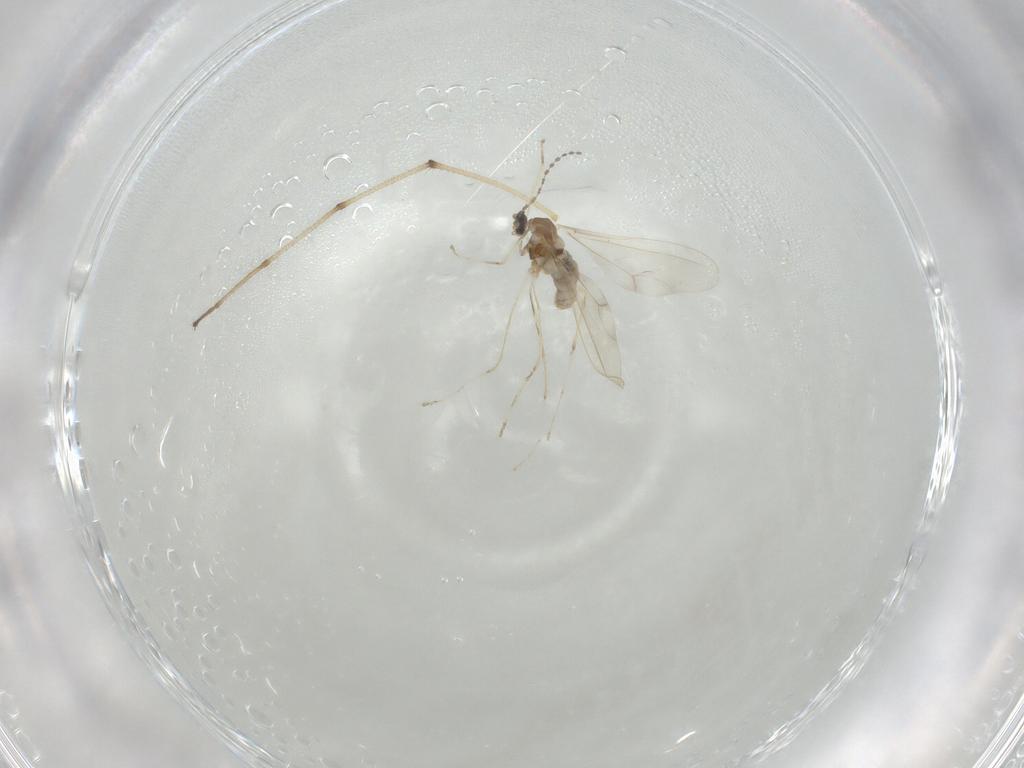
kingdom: Animalia
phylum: Arthropoda
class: Insecta
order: Diptera
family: Cecidomyiidae
